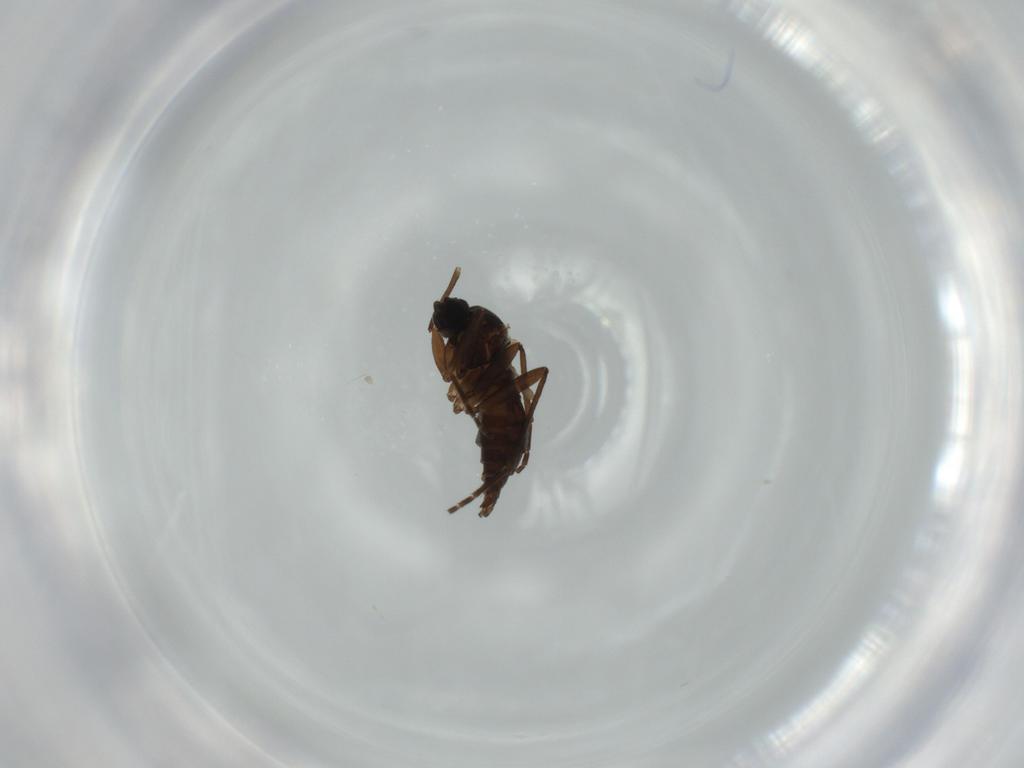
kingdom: Animalia
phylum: Arthropoda
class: Insecta
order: Diptera
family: Sciaridae
